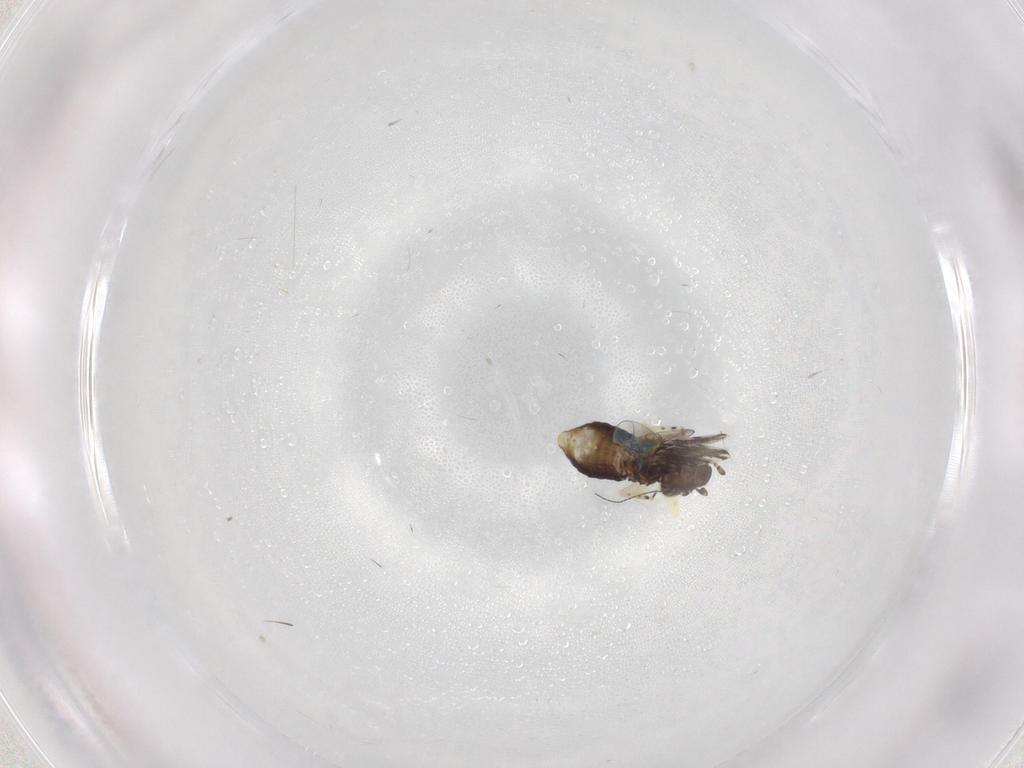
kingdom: Animalia
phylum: Arthropoda
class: Insecta
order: Psocodea
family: Psoquillidae
